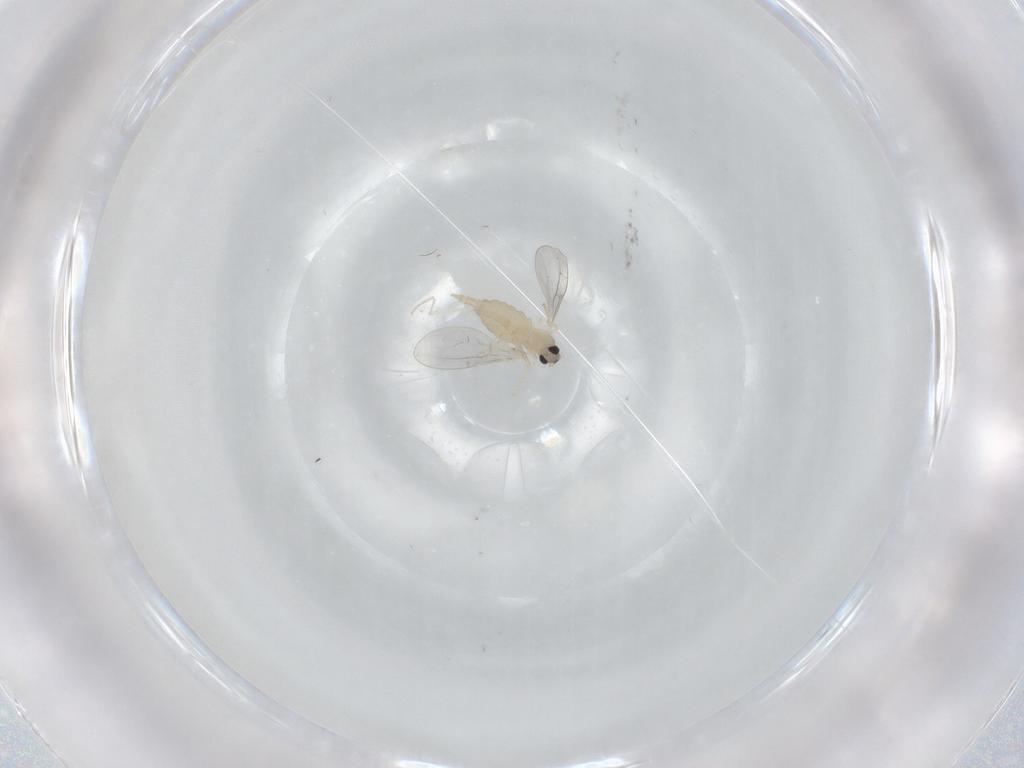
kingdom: Animalia
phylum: Arthropoda
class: Insecta
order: Diptera
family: Cecidomyiidae
